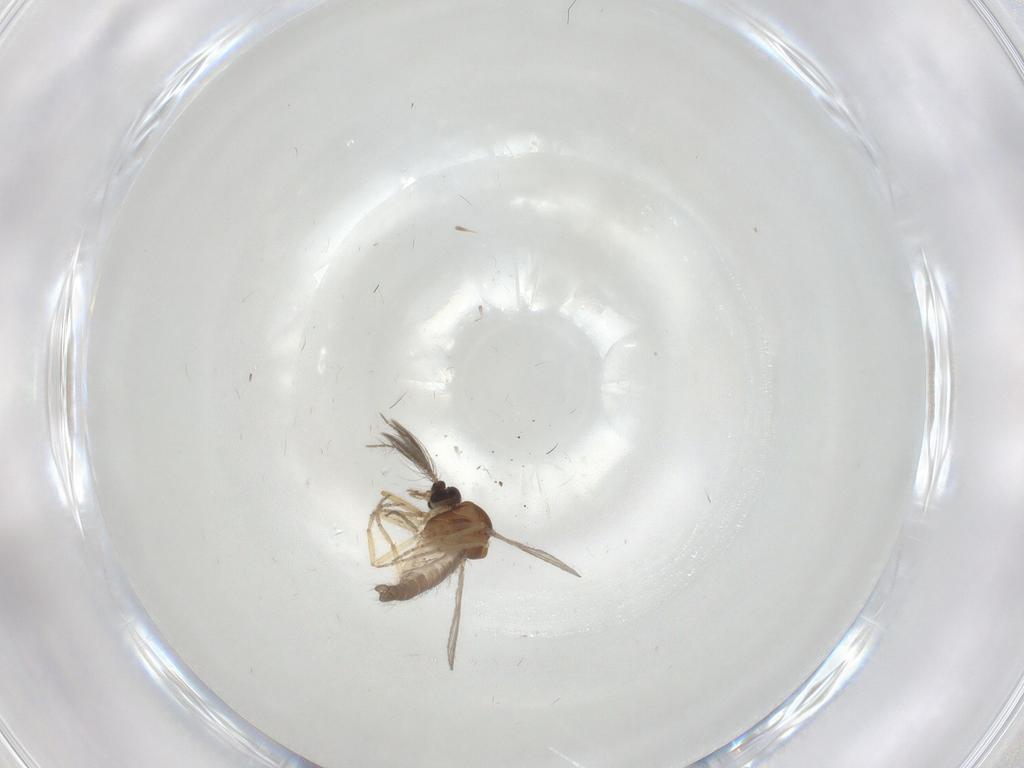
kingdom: Animalia
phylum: Arthropoda
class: Insecta
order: Diptera
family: Ceratopogonidae
